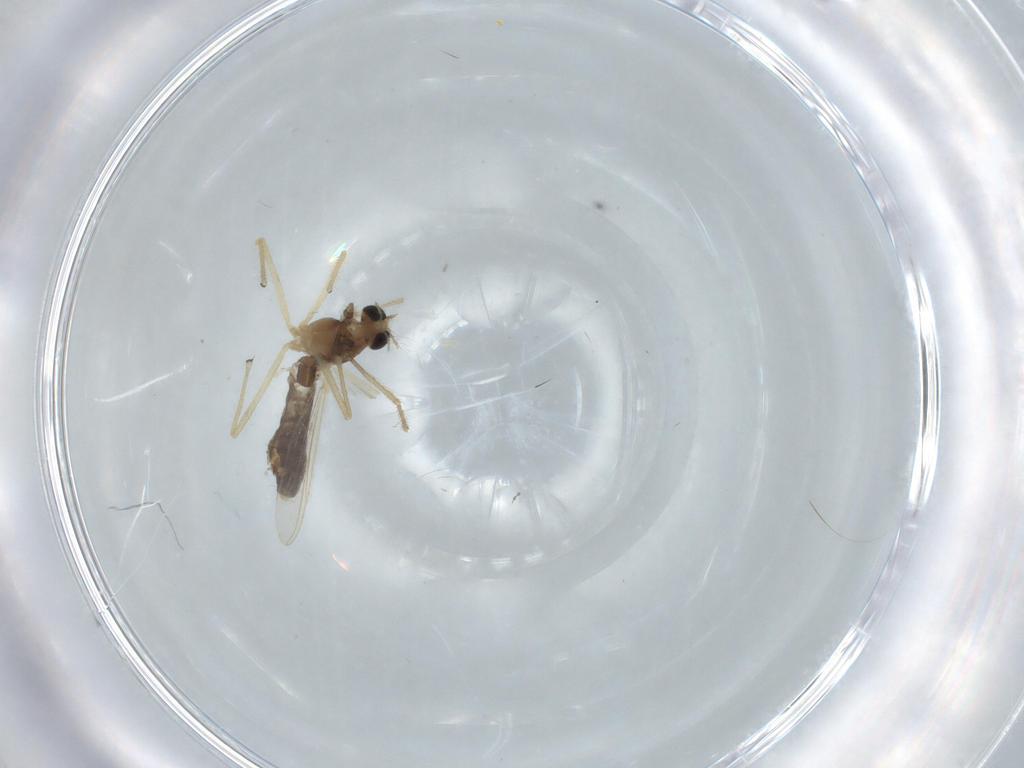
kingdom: Animalia
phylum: Arthropoda
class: Insecta
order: Diptera
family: Chironomidae
